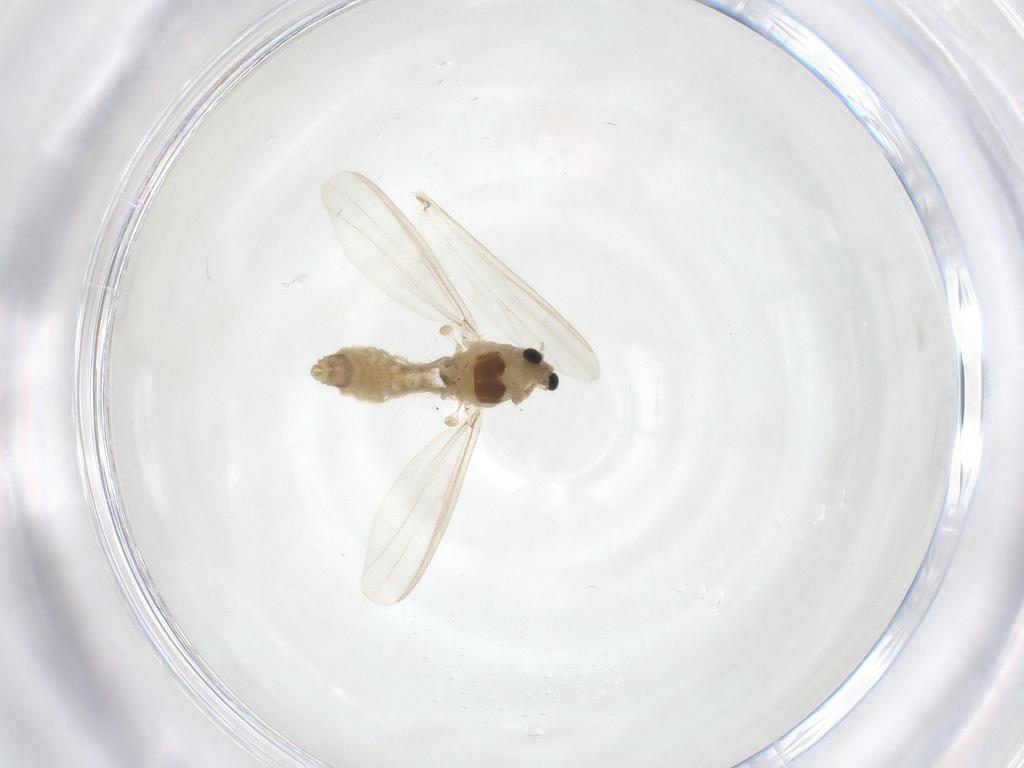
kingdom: Animalia
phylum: Arthropoda
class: Insecta
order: Diptera
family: Chironomidae
